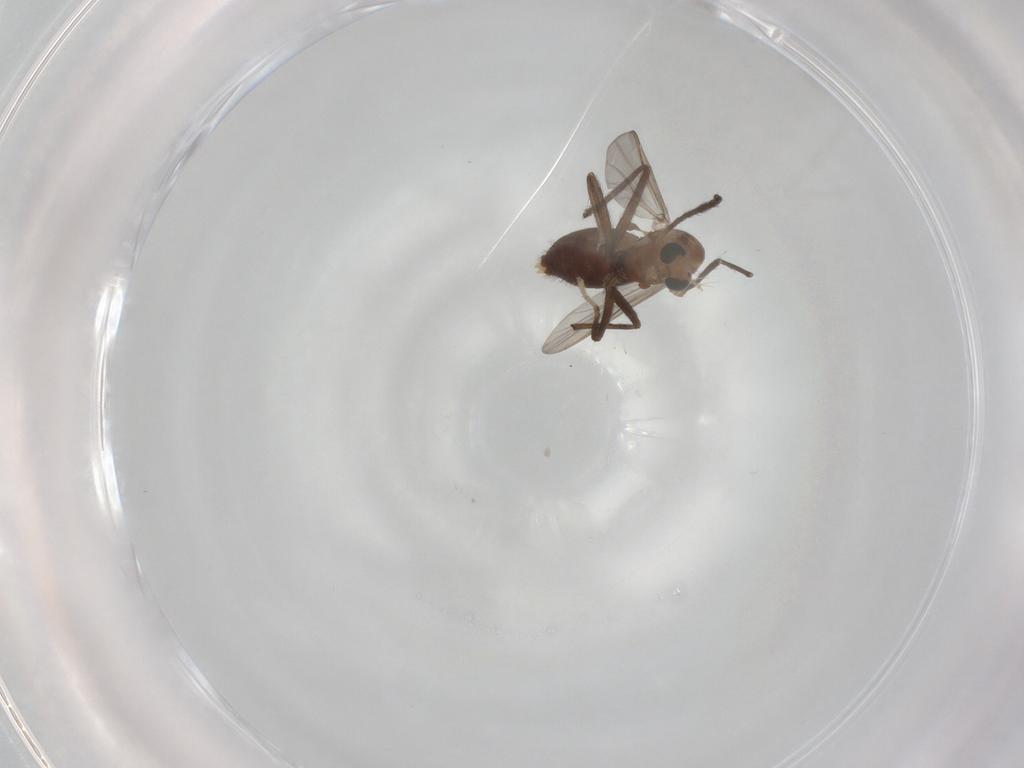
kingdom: Animalia
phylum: Arthropoda
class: Insecta
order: Diptera
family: Chironomidae
